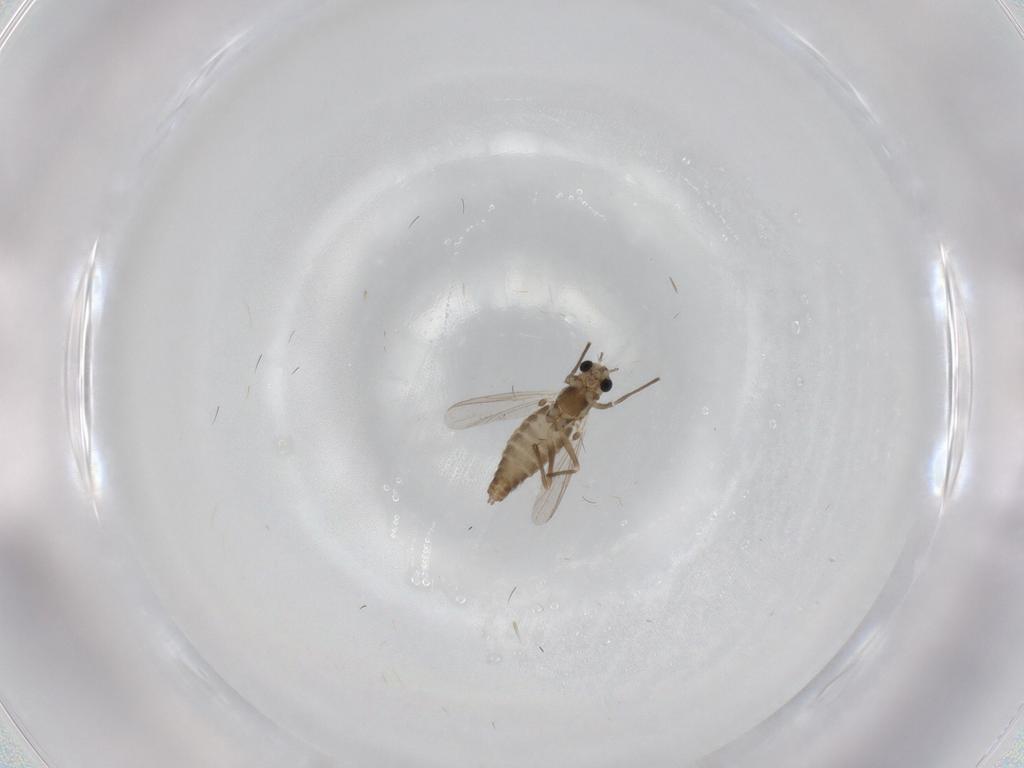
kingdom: Animalia
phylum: Arthropoda
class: Insecta
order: Diptera
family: Chironomidae
